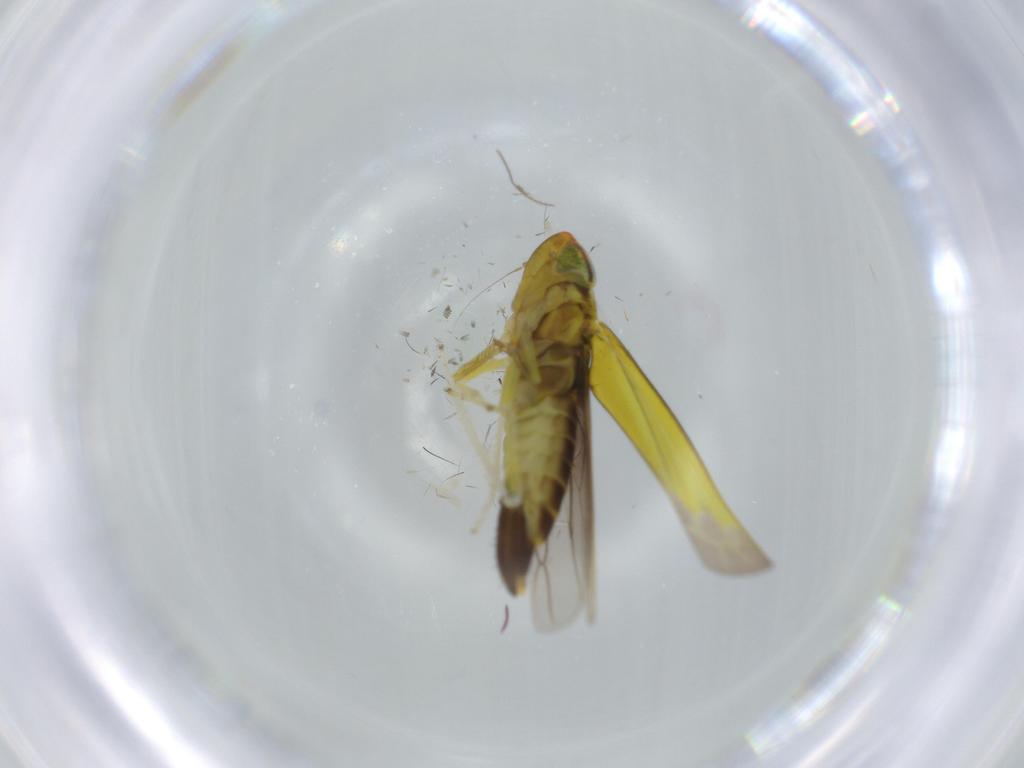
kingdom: Animalia
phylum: Arthropoda
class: Insecta
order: Hemiptera
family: Cicadellidae
